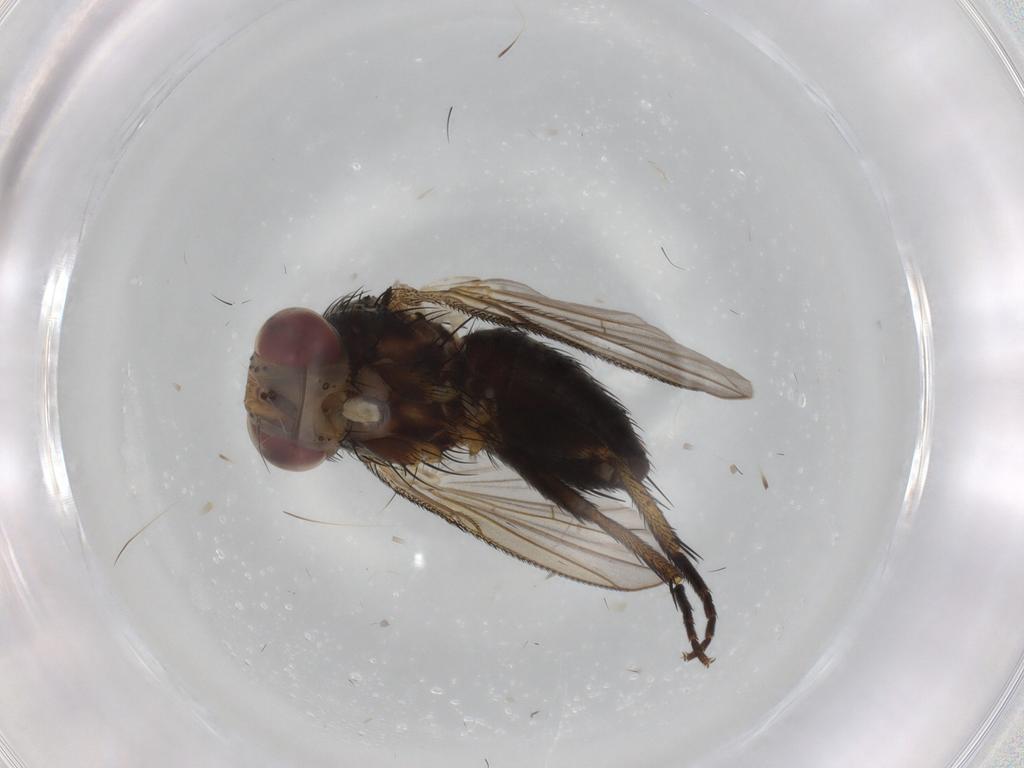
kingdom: Animalia
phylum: Arthropoda
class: Insecta
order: Diptera
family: Tachinidae
